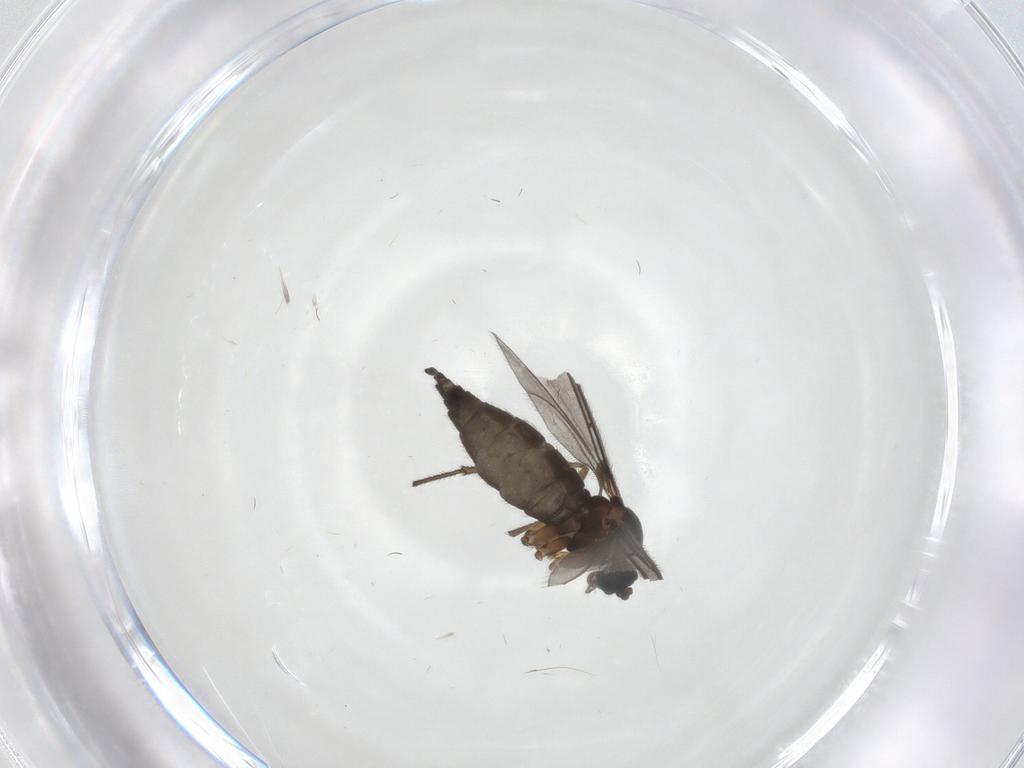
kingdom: Animalia
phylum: Arthropoda
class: Insecta
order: Diptera
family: Sciaridae
